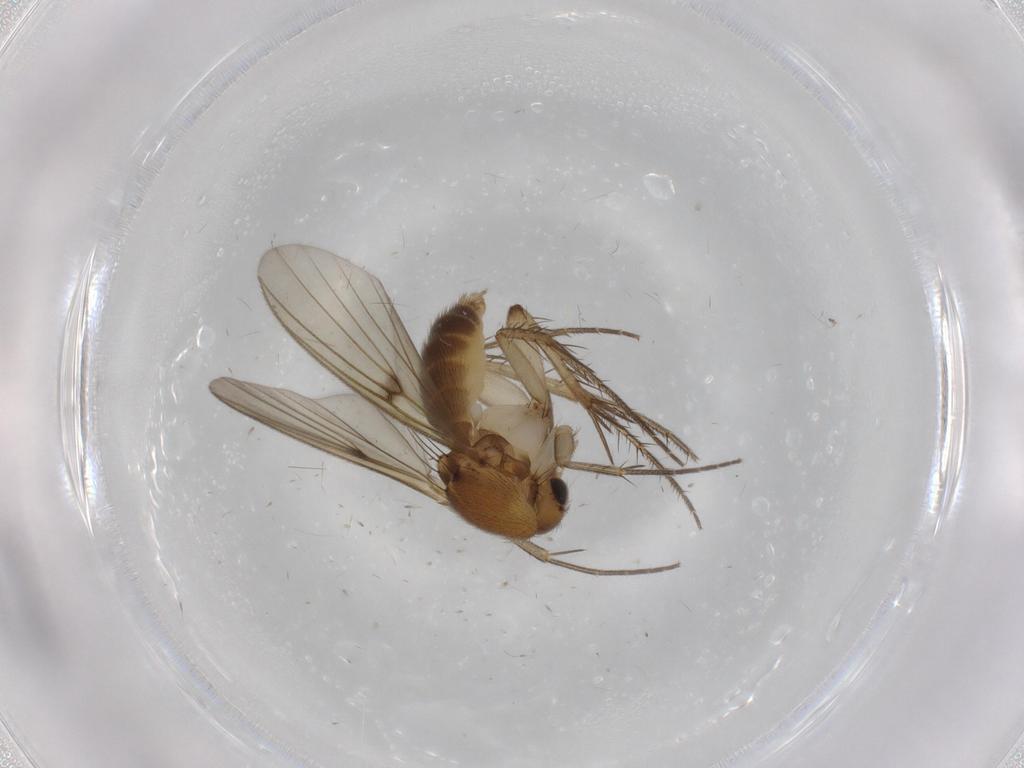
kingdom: Animalia
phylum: Arthropoda
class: Insecta
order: Diptera
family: Mycetophilidae
